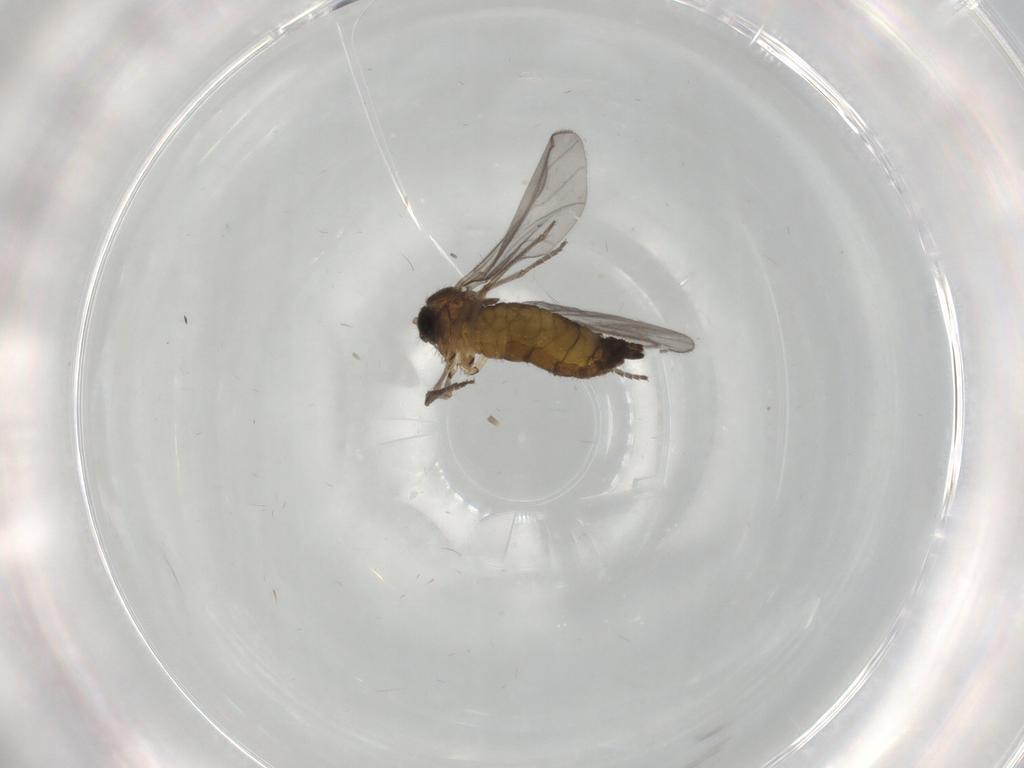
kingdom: Animalia
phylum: Arthropoda
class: Insecta
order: Diptera
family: Sciaridae
